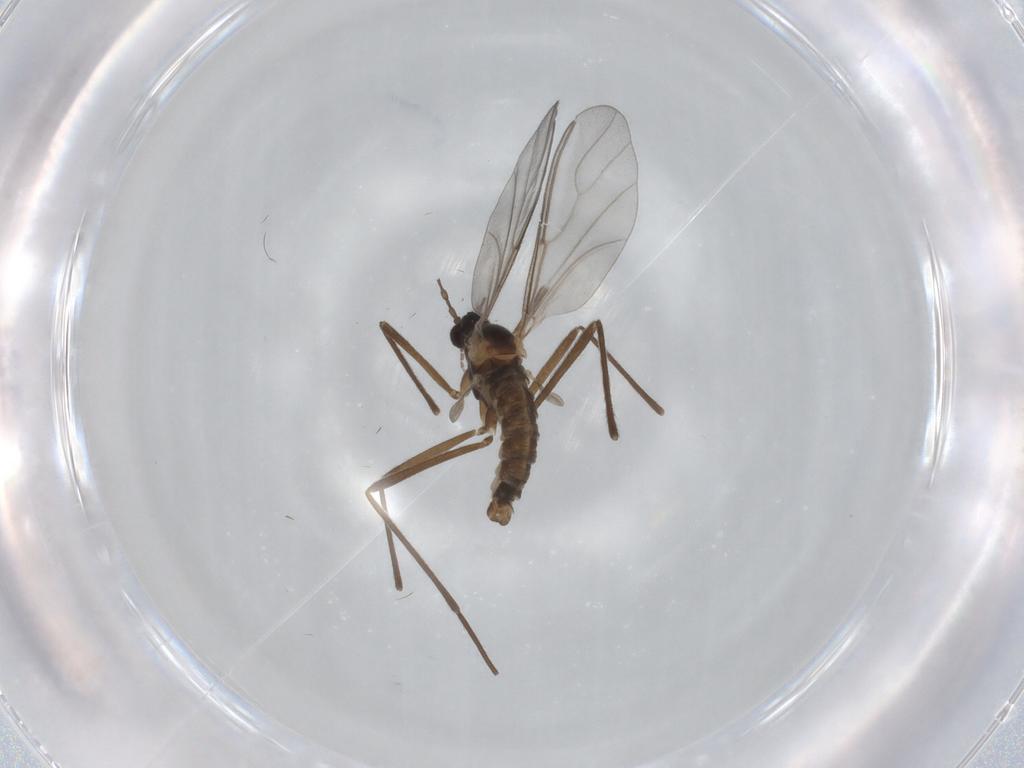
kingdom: Animalia
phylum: Arthropoda
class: Insecta
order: Diptera
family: Cecidomyiidae
